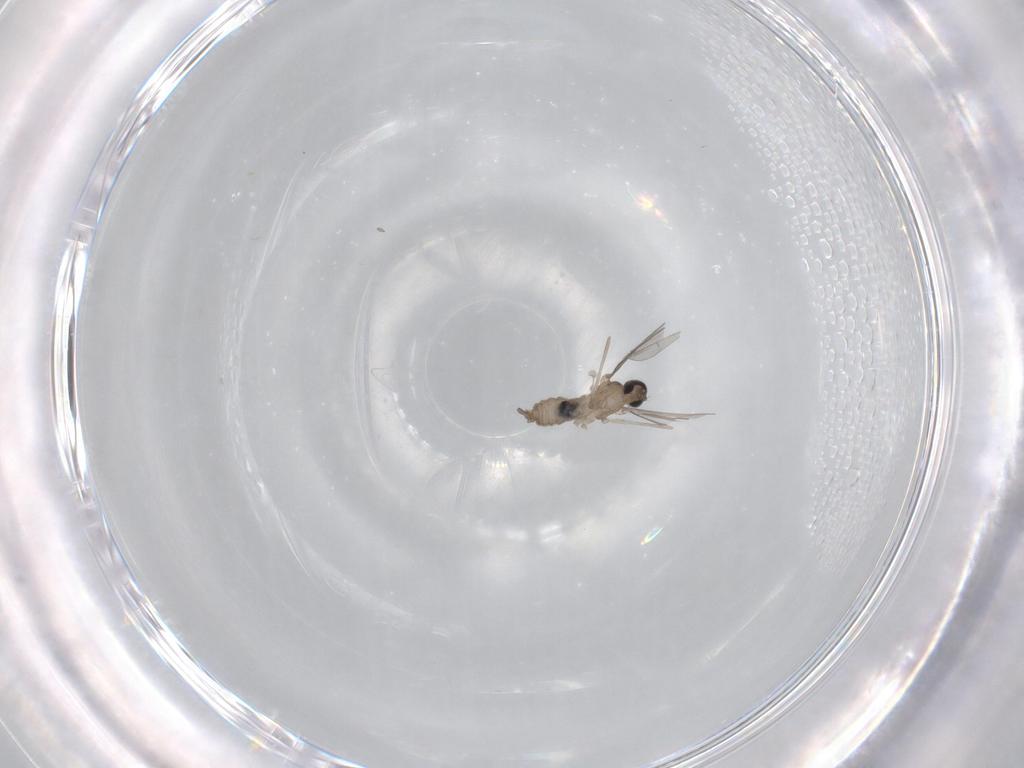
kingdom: Animalia
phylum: Arthropoda
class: Insecta
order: Diptera
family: Cecidomyiidae
